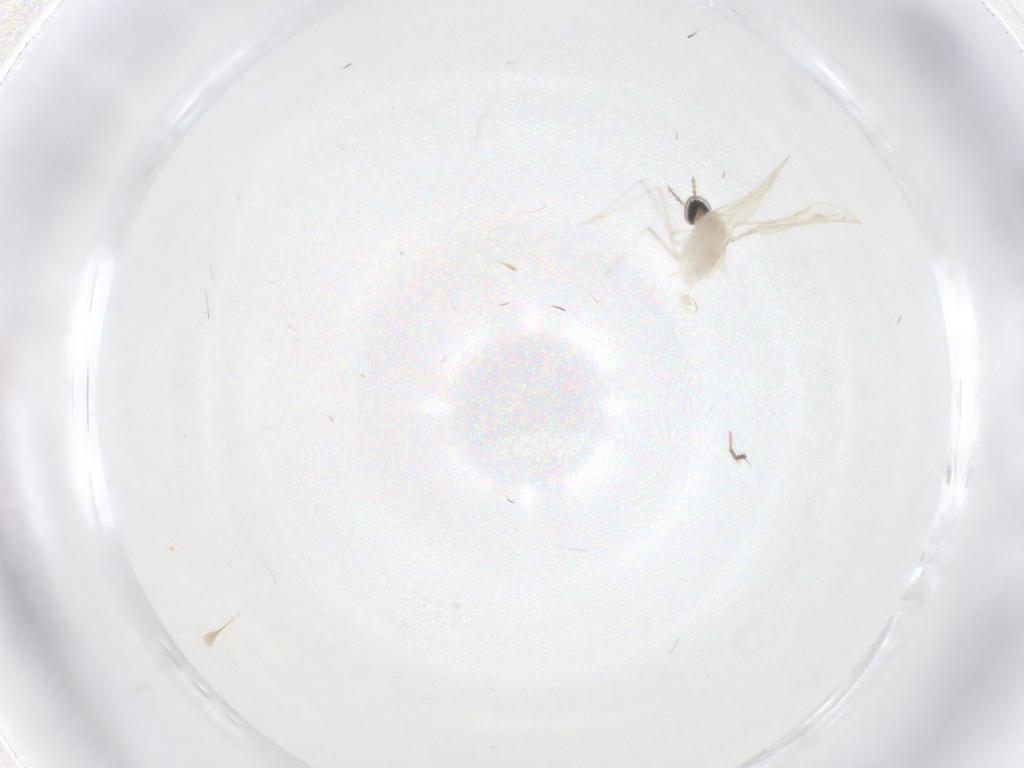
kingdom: Animalia
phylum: Arthropoda
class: Insecta
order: Diptera
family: Cecidomyiidae
